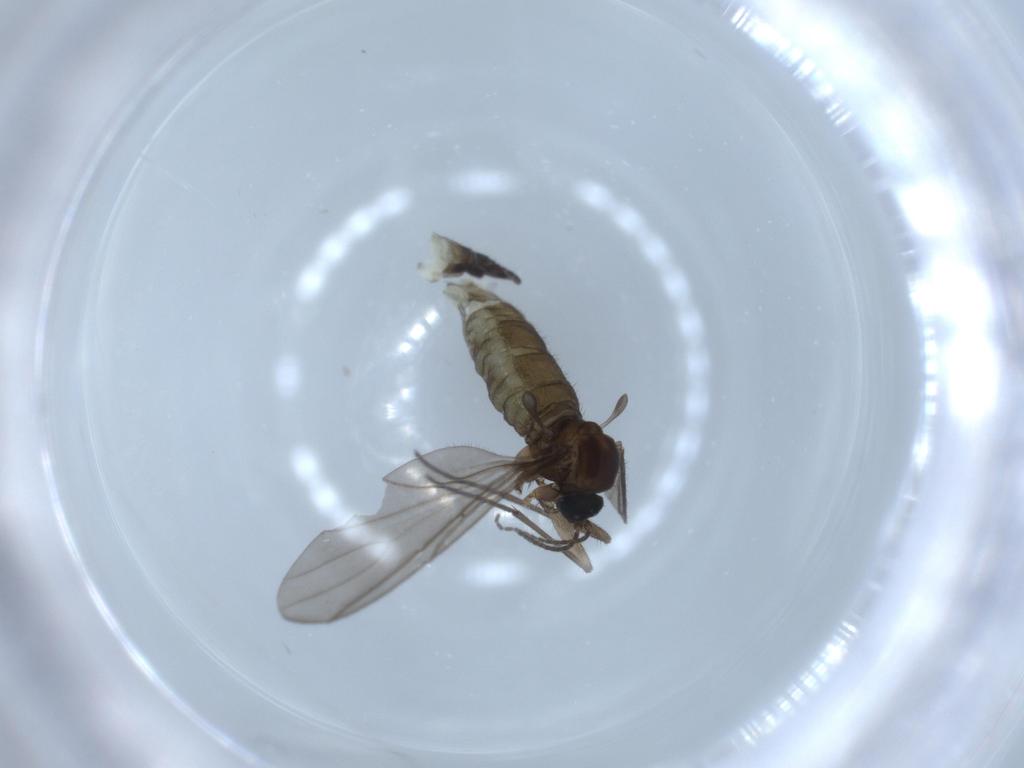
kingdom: Animalia
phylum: Arthropoda
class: Insecta
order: Diptera
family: Sciaridae
